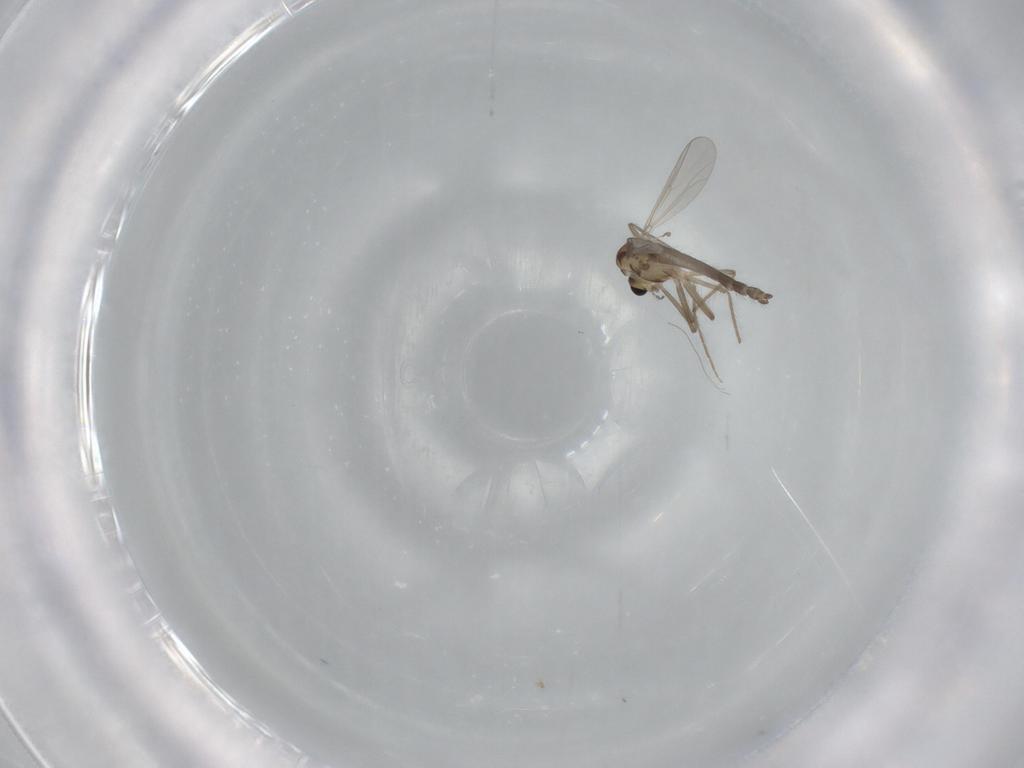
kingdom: Animalia
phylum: Arthropoda
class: Insecta
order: Diptera
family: Chironomidae
